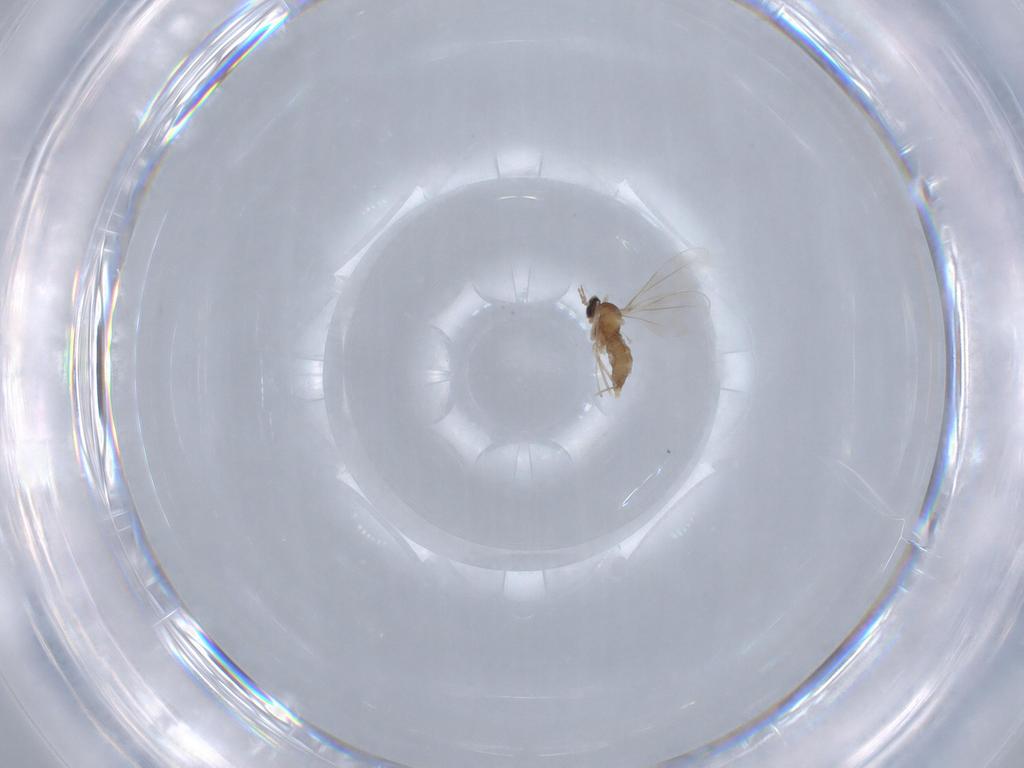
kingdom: Animalia
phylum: Arthropoda
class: Insecta
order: Diptera
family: Cecidomyiidae
